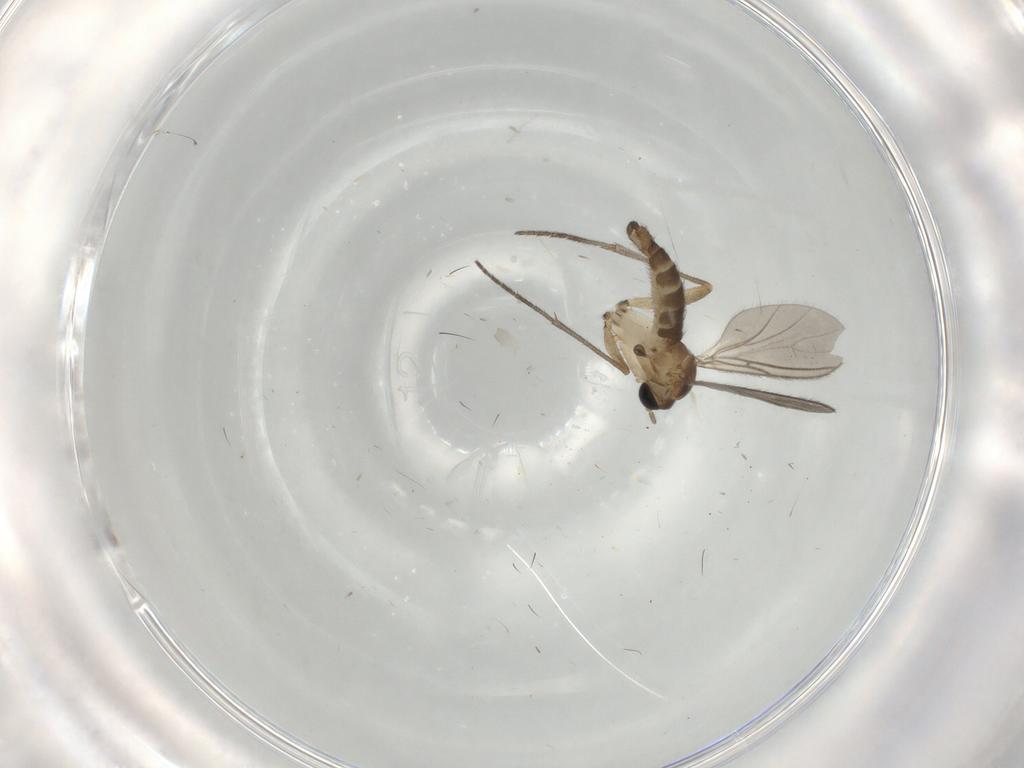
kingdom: Animalia
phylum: Arthropoda
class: Insecta
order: Diptera
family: Sciaridae
